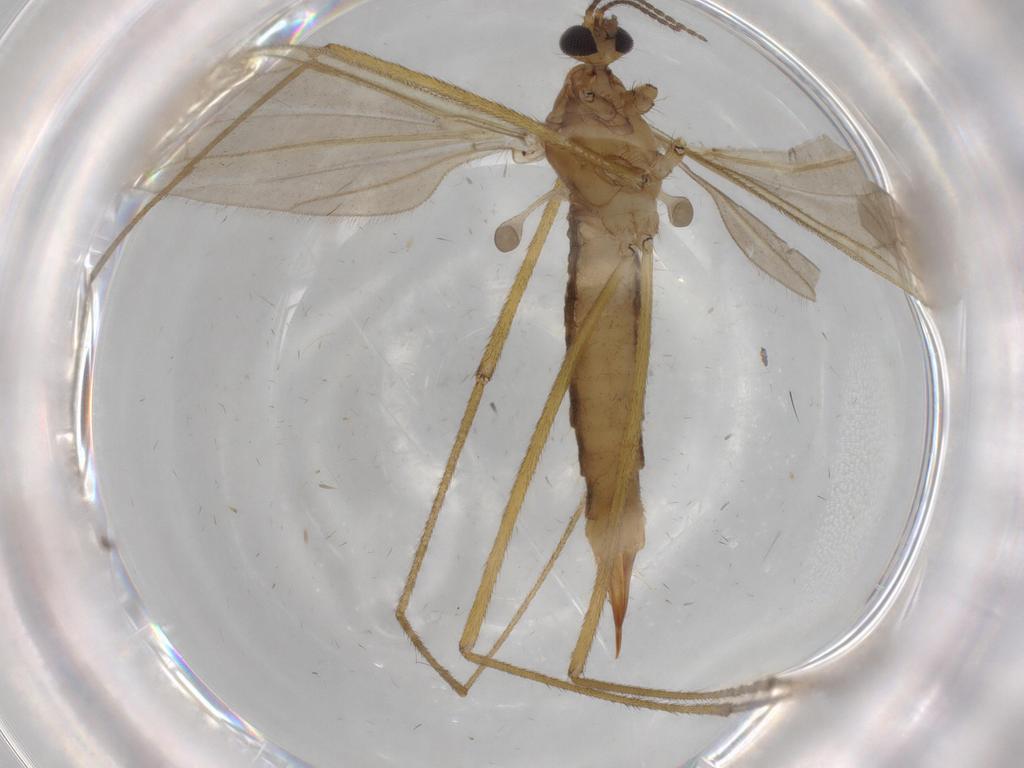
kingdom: Animalia
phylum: Arthropoda
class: Insecta
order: Diptera
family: Mycetophilidae
